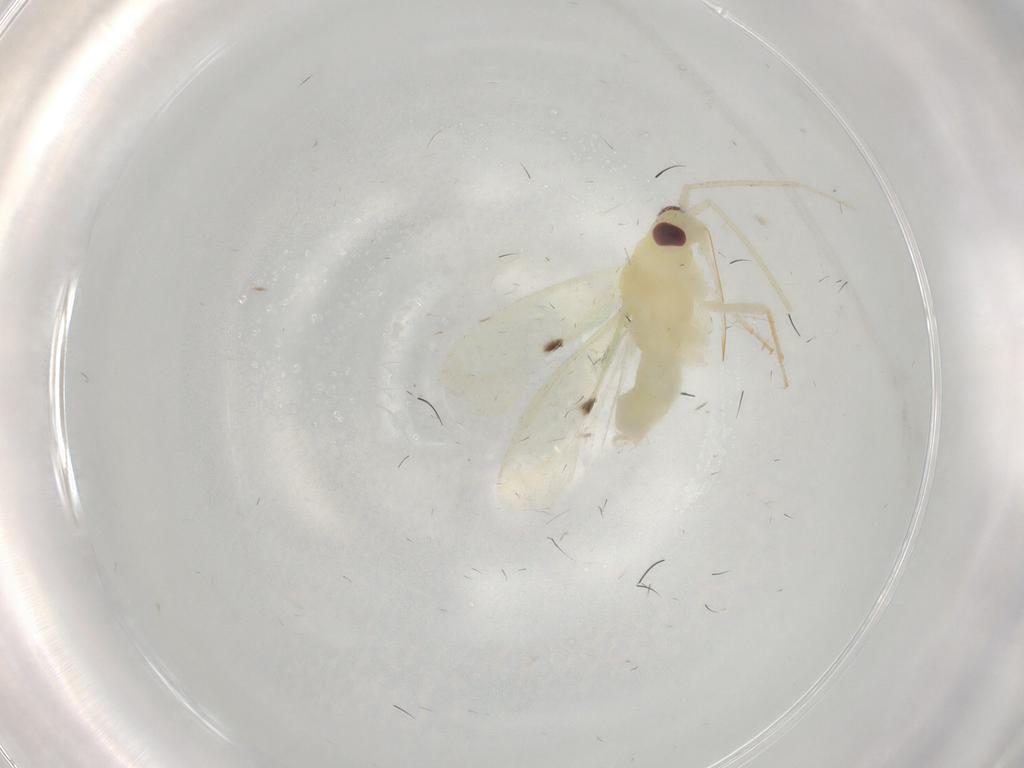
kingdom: Animalia
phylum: Arthropoda
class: Insecta
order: Hemiptera
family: Miridae
